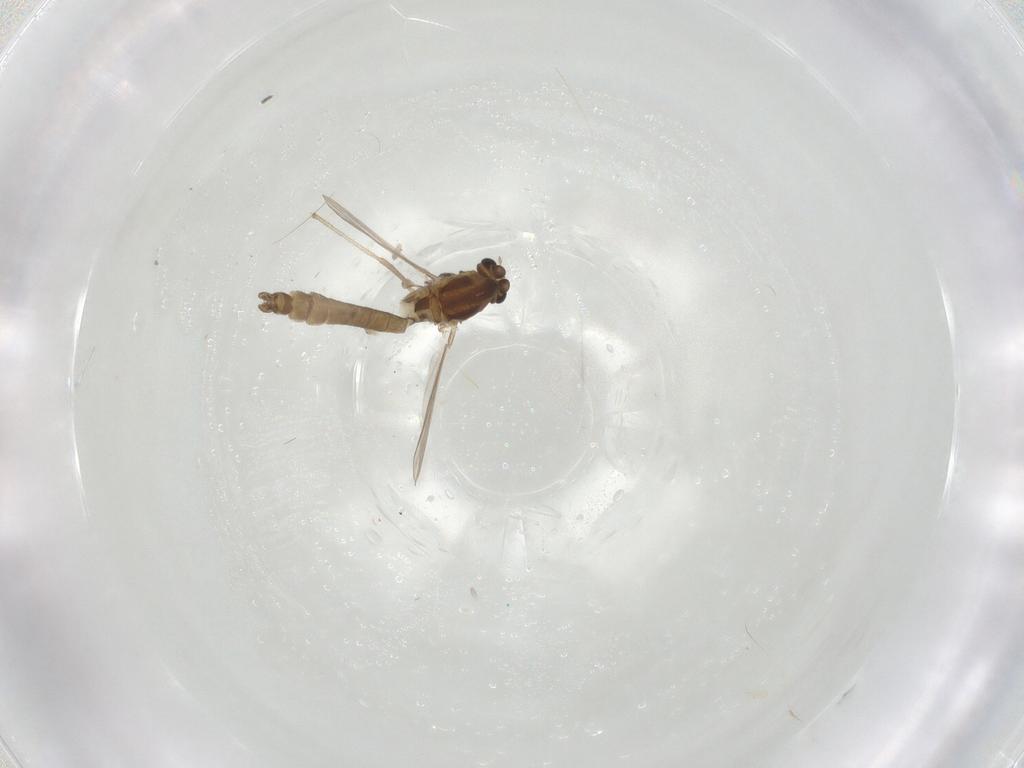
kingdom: Animalia
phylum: Arthropoda
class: Insecta
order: Diptera
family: Chironomidae
